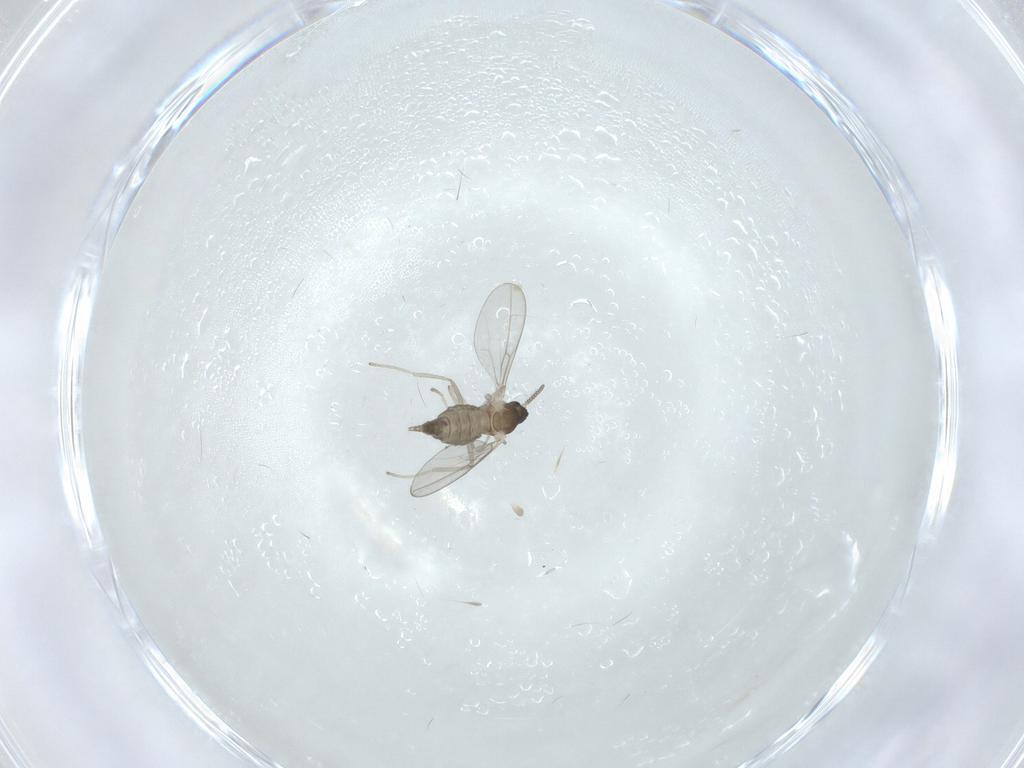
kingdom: Animalia
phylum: Arthropoda
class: Insecta
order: Diptera
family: Cecidomyiidae
